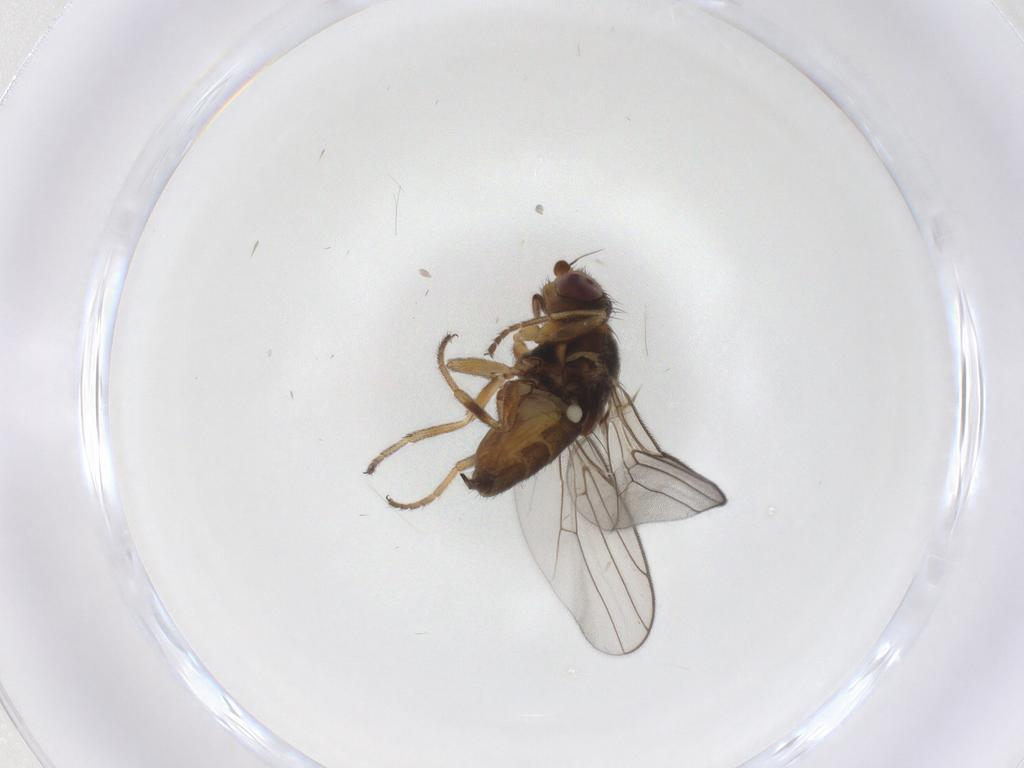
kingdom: Animalia
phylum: Arthropoda
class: Insecta
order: Diptera
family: Chloropidae
